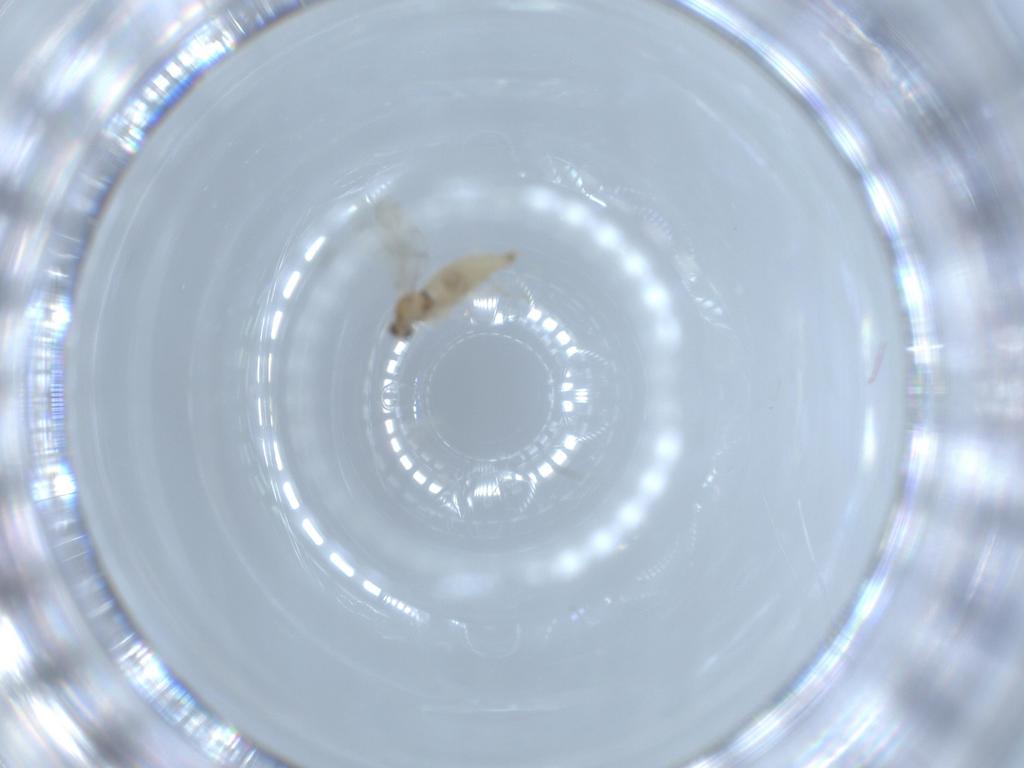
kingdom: Animalia
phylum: Arthropoda
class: Insecta
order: Diptera
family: Cecidomyiidae
